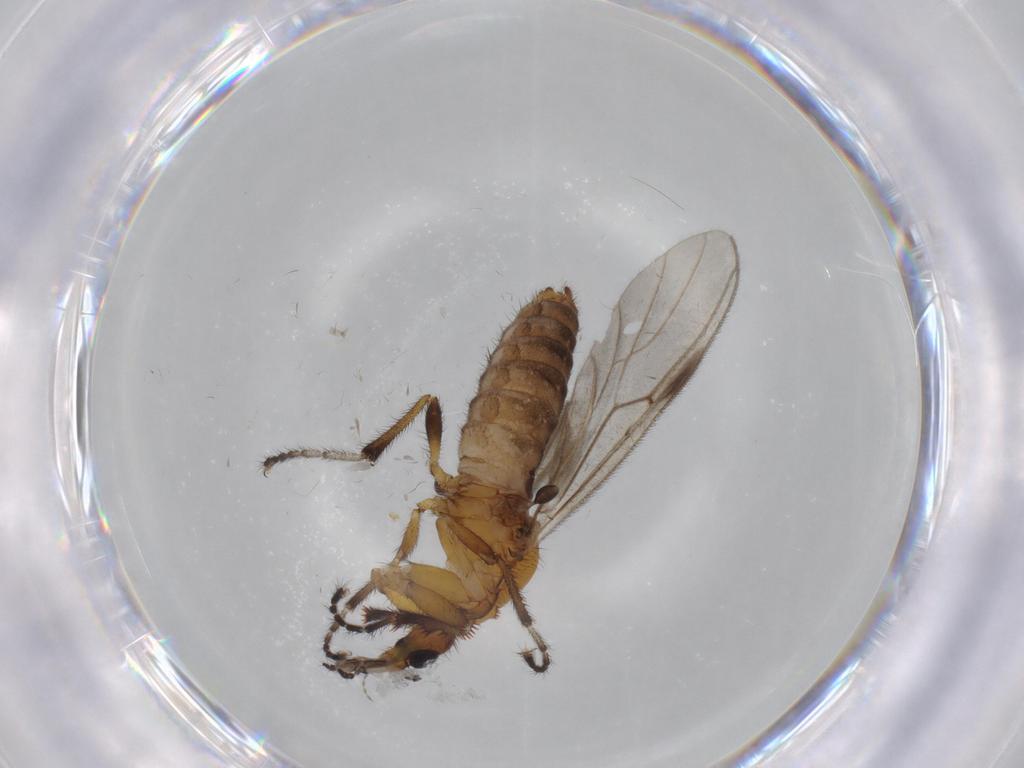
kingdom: Animalia
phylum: Arthropoda
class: Insecta
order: Diptera
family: Bibionidae
